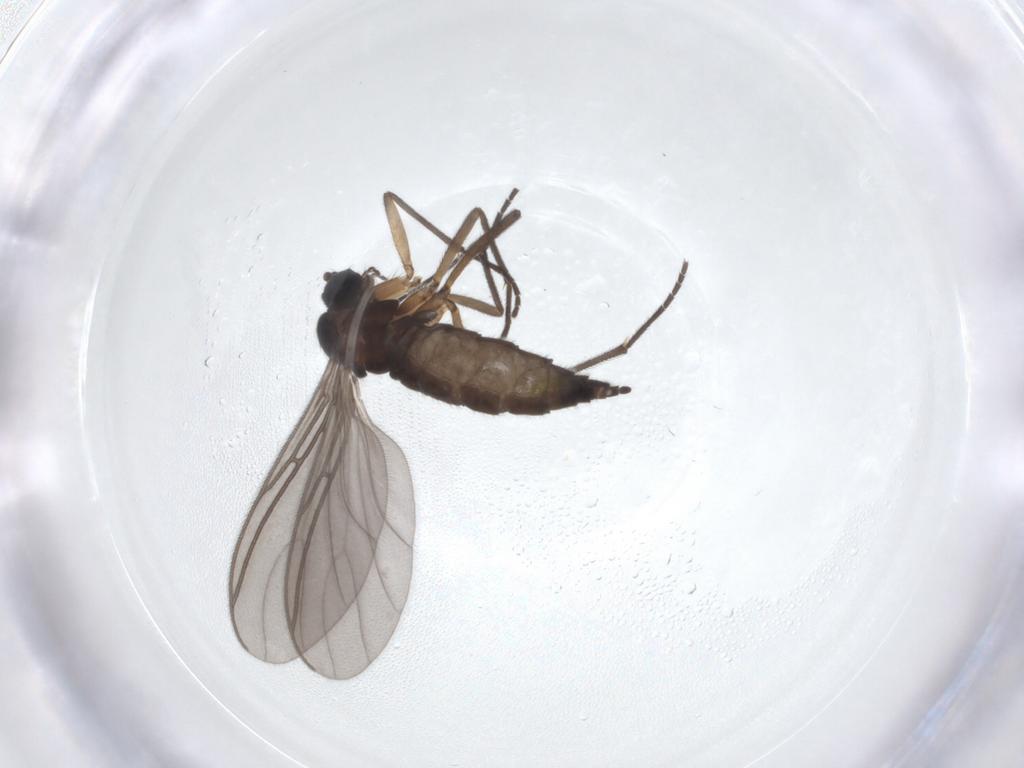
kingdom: Animalia
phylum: Arthropoda
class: Insecta
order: Diptera
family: Sciaridae
